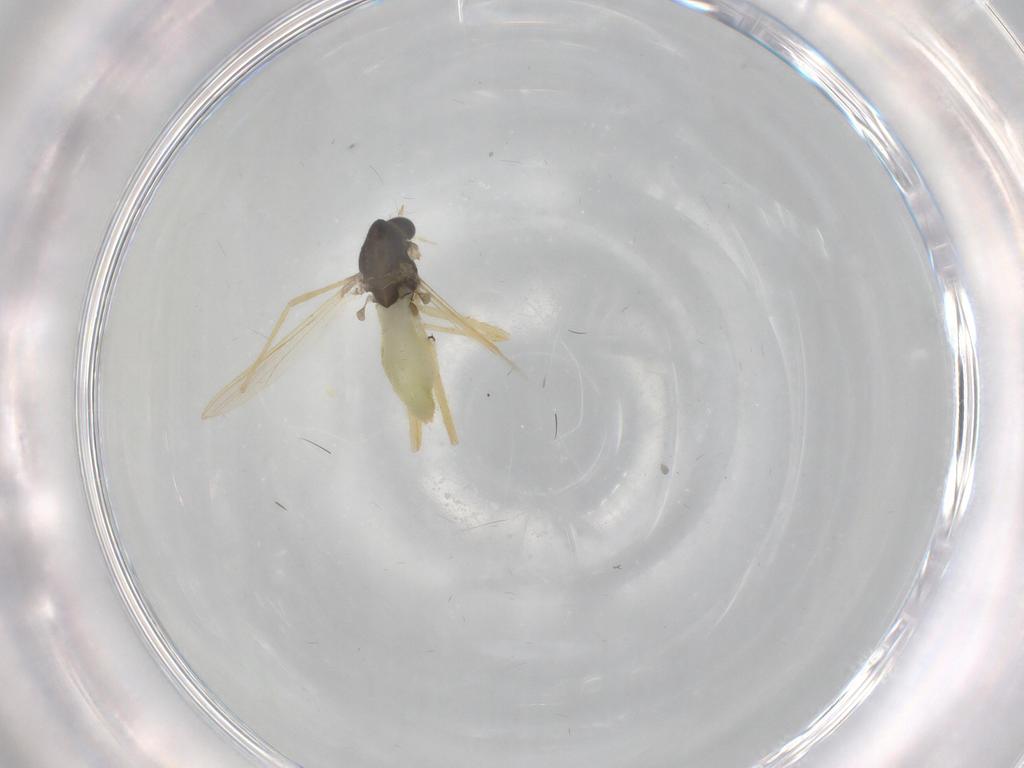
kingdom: Animalia
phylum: Arthropoda
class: Insecta
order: Diptera
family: Chironomidae
